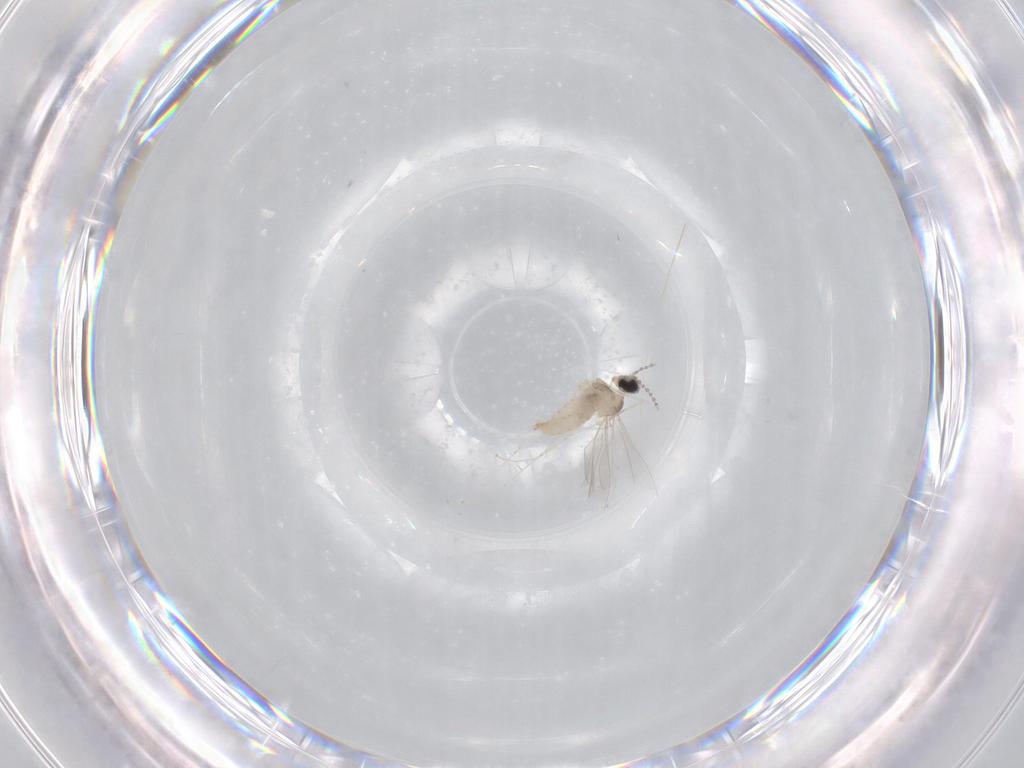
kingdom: Animalia
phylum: Arthropoda
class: Insecta
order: Diptera
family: Cecidomyiidae
